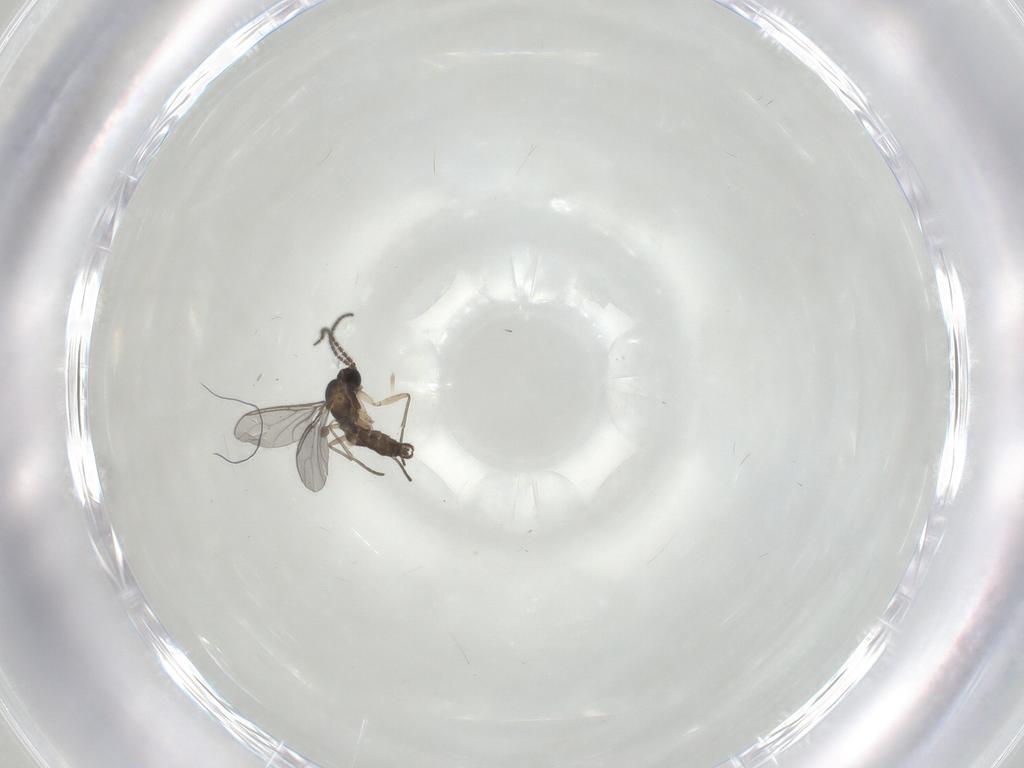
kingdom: Animalia
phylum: Arthropoda
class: Insecta
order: Diptera
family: Sciaridae
